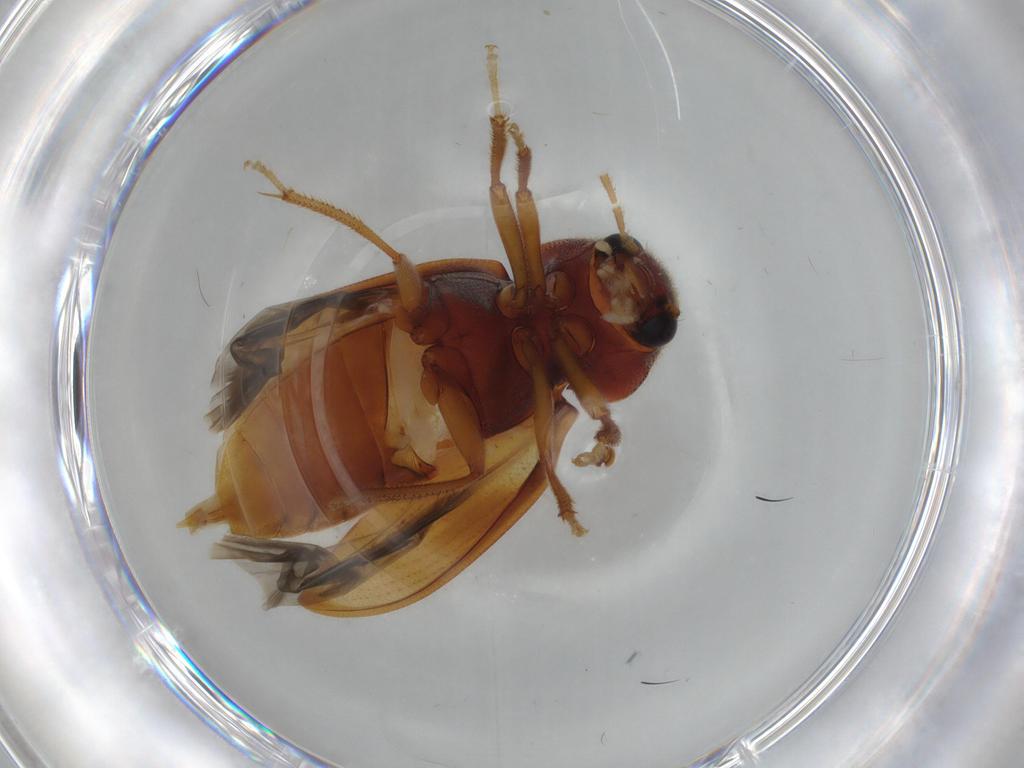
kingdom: Animalia
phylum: Arthropoda
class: Insecta
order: Coleoptera
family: Ptilodactylidae
